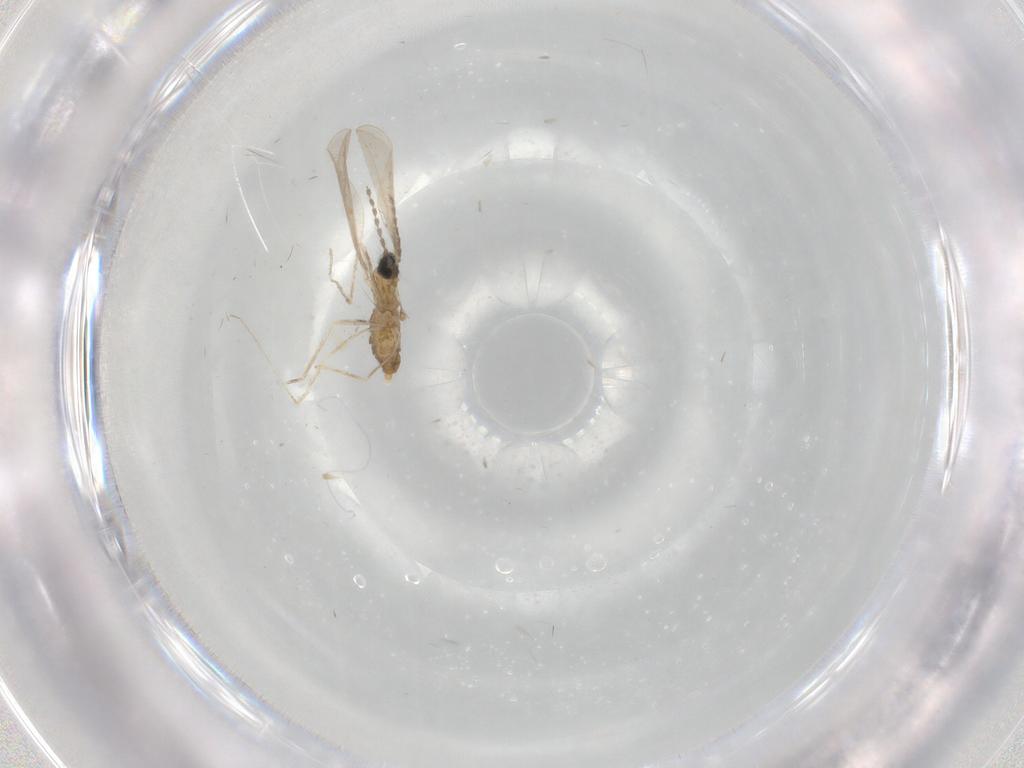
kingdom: Animalia
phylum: Arthropoda
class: Insecta
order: Diptera
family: Cecidomyiidae
